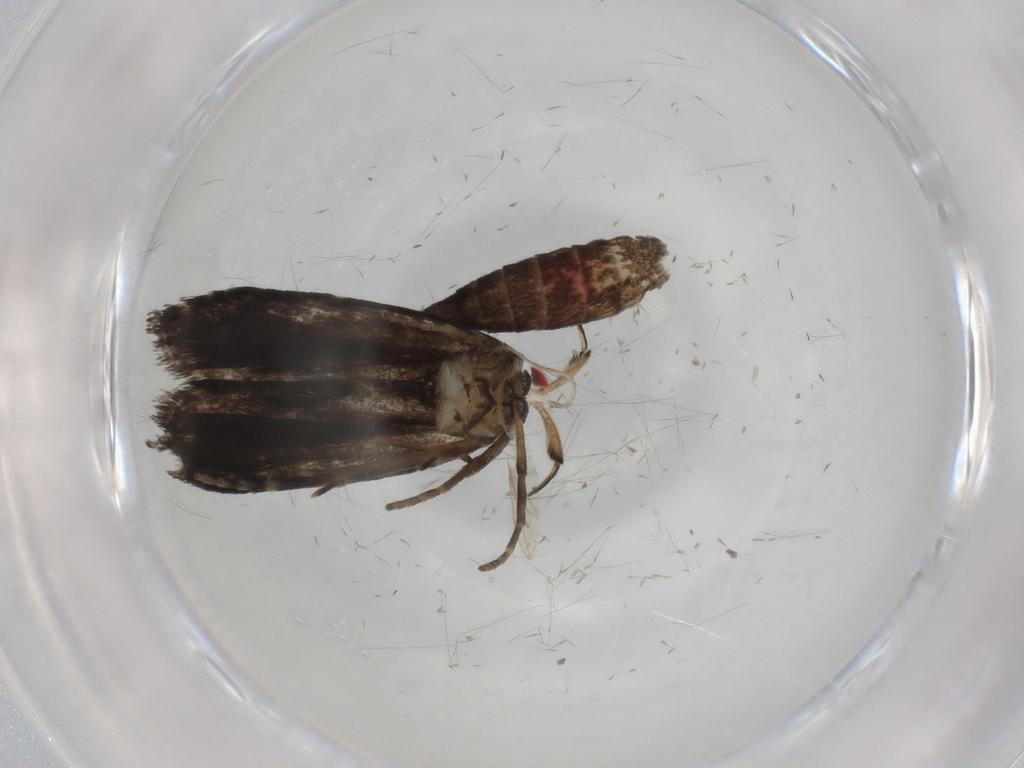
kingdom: Animalia
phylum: Arthropoda
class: Insecta
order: Lepidoptera
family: Gelechiidae
